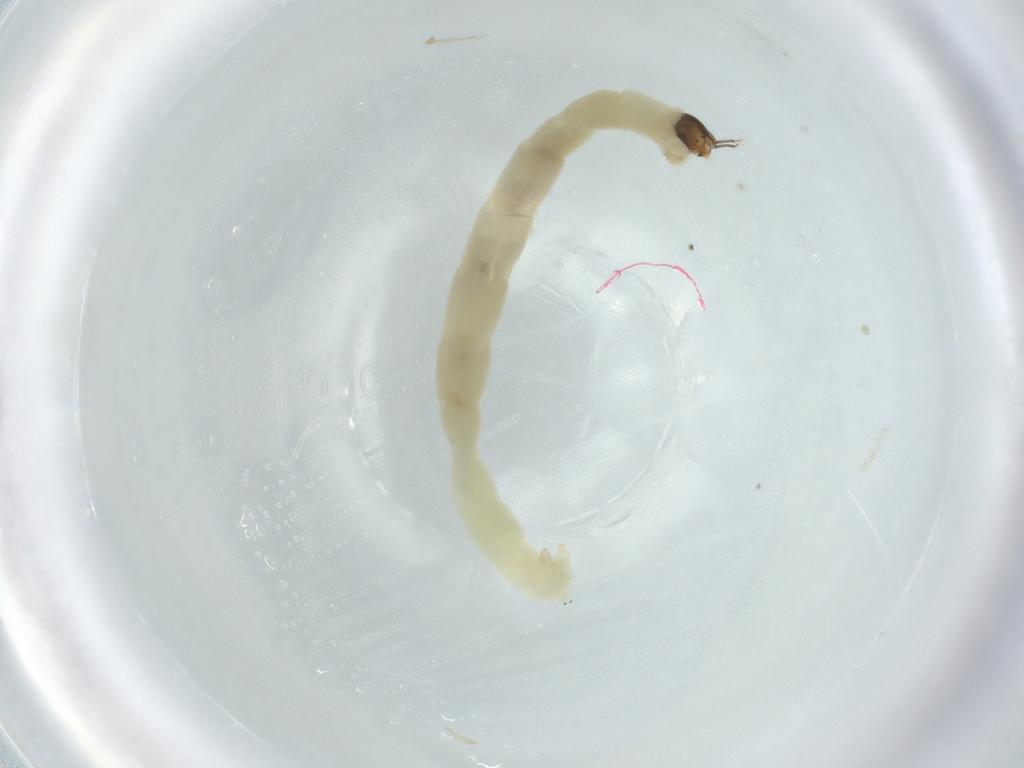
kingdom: Animalia
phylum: Arthropoda
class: Insecta
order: Diptera
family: Chironomidae
